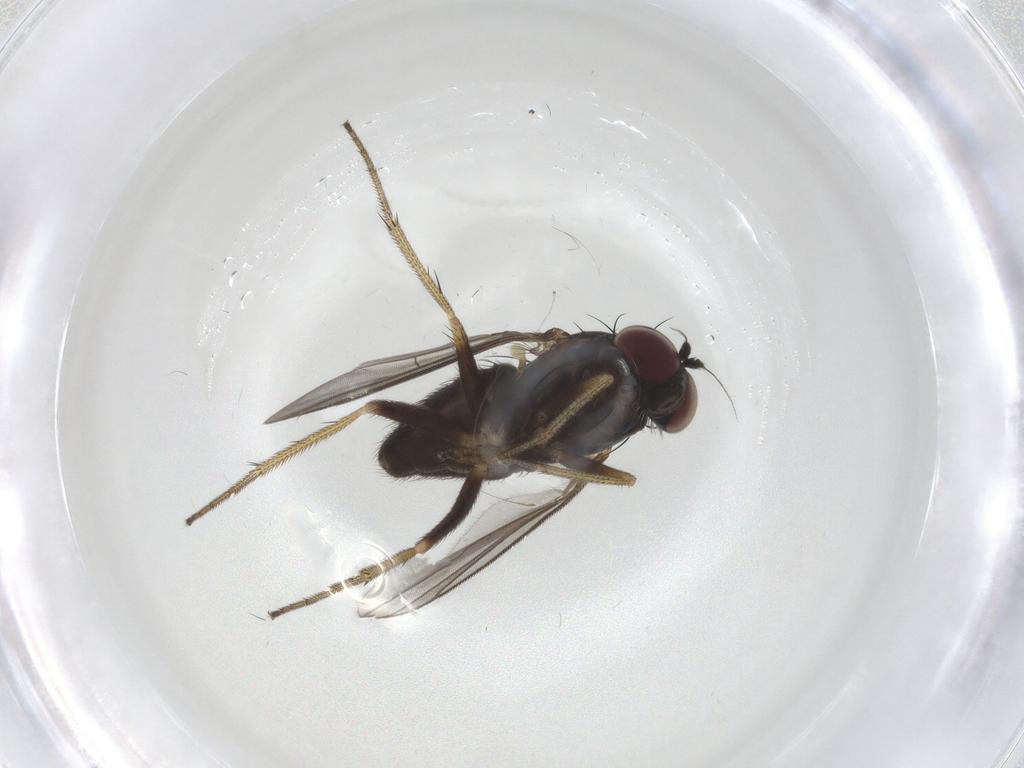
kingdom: Animalia
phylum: Arthropoda
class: Insecta
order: Diptera
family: Dolichopodidae
